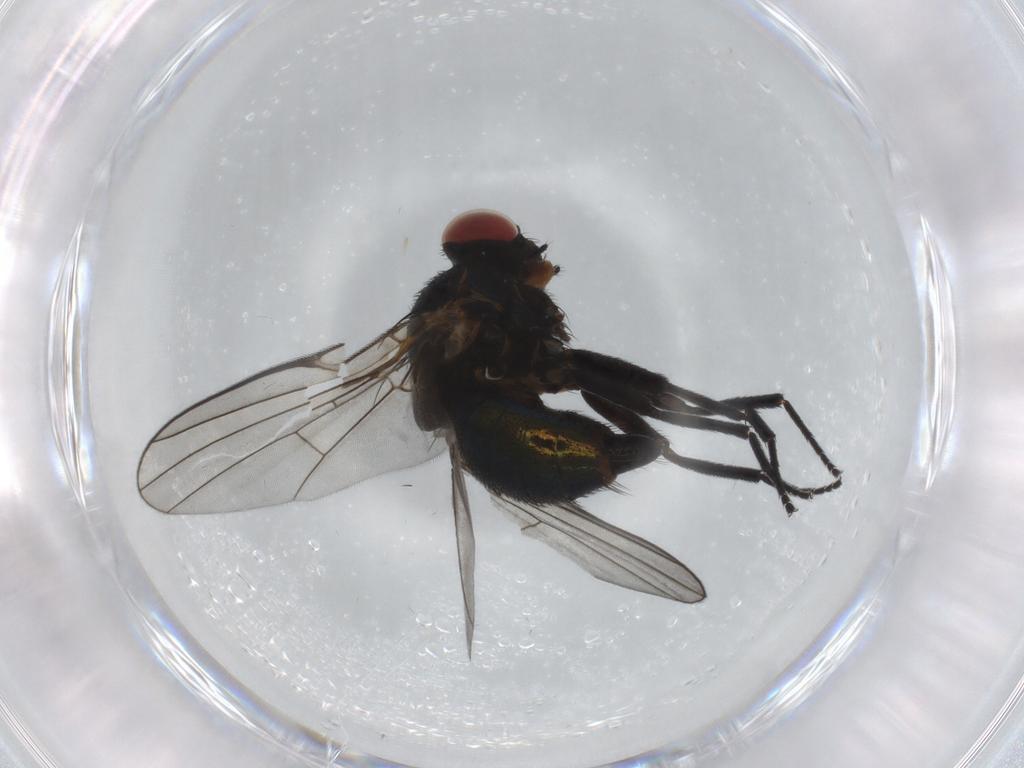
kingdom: Animalia
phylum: Arthropoda
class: Insecta
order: Diptera
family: Agromyzidae
